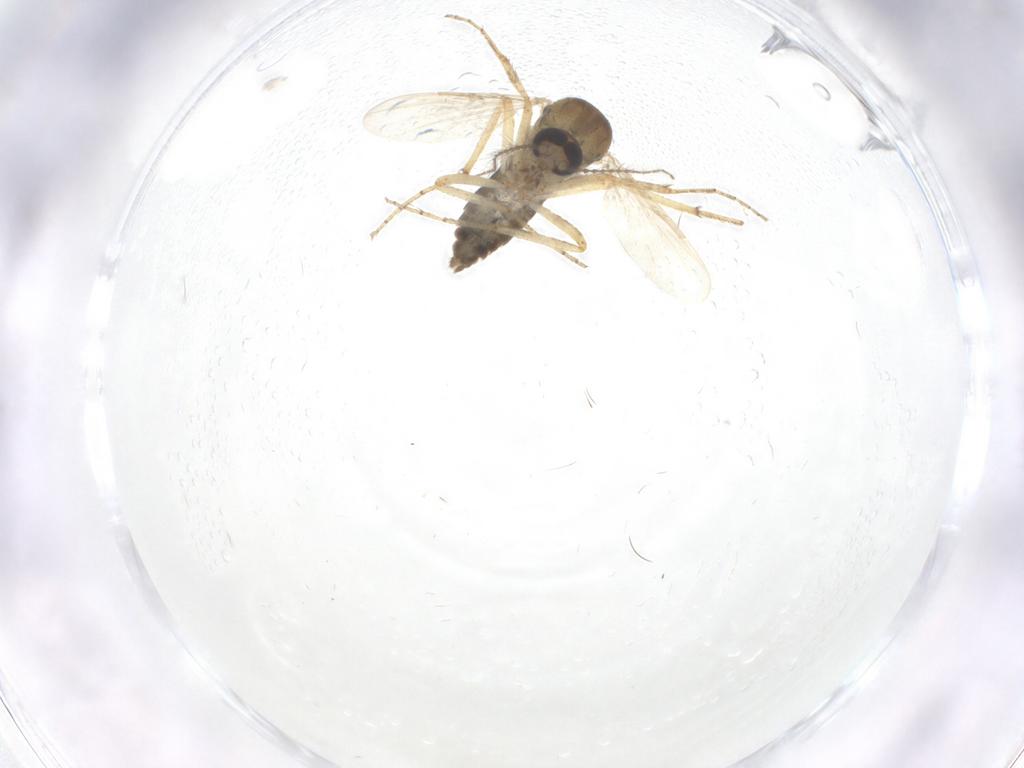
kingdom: Animalia
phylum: Arthropoda
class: Insecta
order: Diptera
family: Ceratopogonidae
